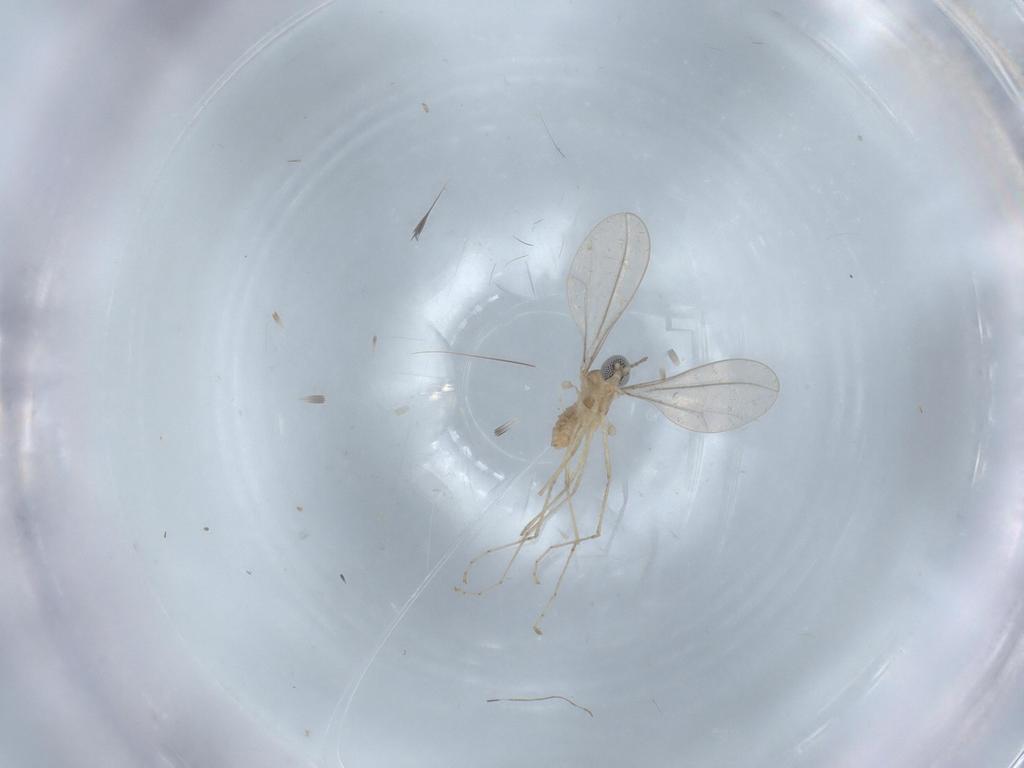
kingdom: Animalia
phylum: Arthropoda
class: Insecta
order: Diptera
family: Cecidomyiidae
